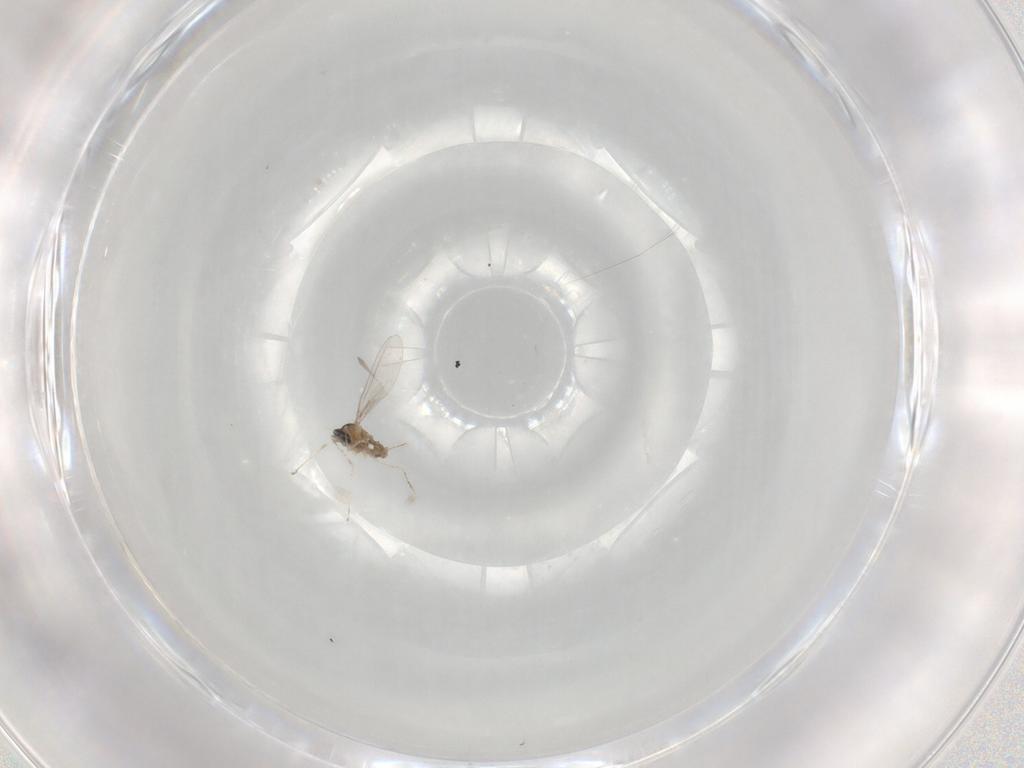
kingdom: Animalia
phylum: Arthropoda
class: Insecta
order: Diptera
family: Cecidomyiidae
